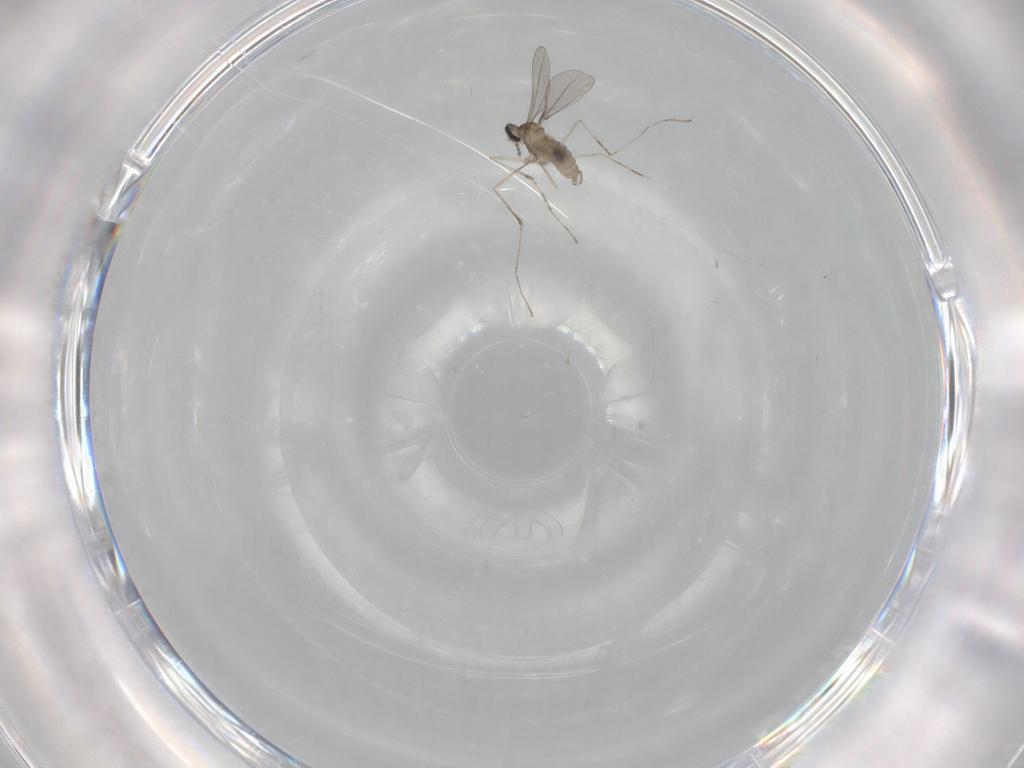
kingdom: Animalia
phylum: Arthropoda
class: Insecta
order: Diptera
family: Cecidomyiidae
